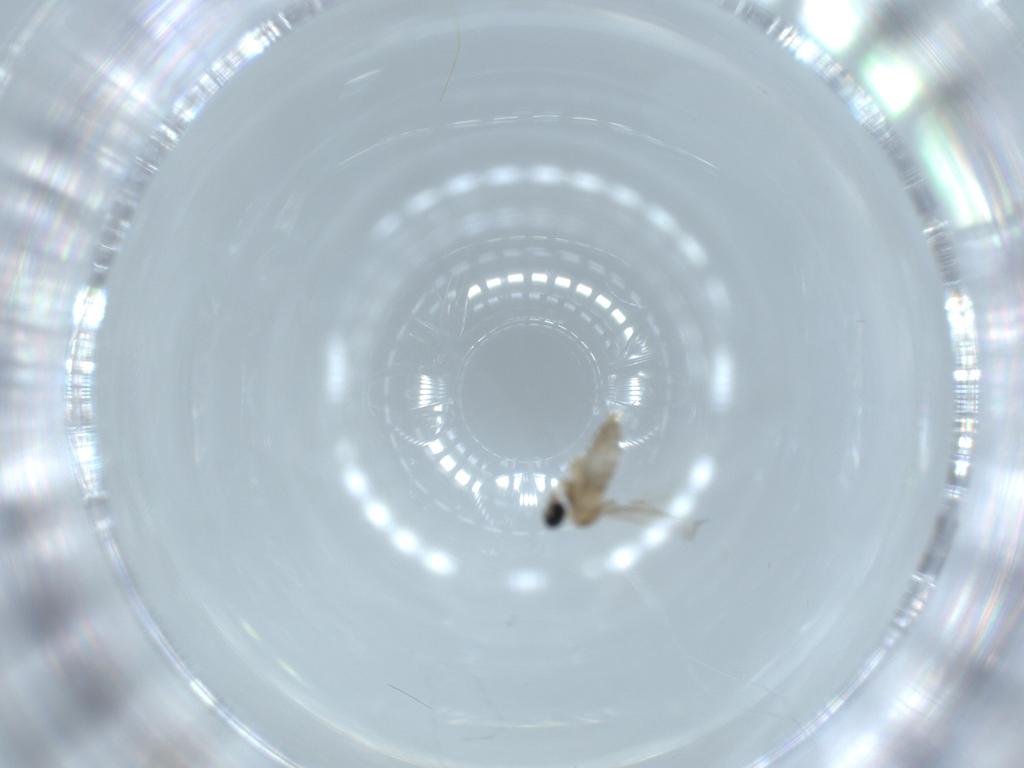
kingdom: Animalia
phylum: Arthropoda
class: Insecta
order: Diptera
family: Cecidomyiidae
